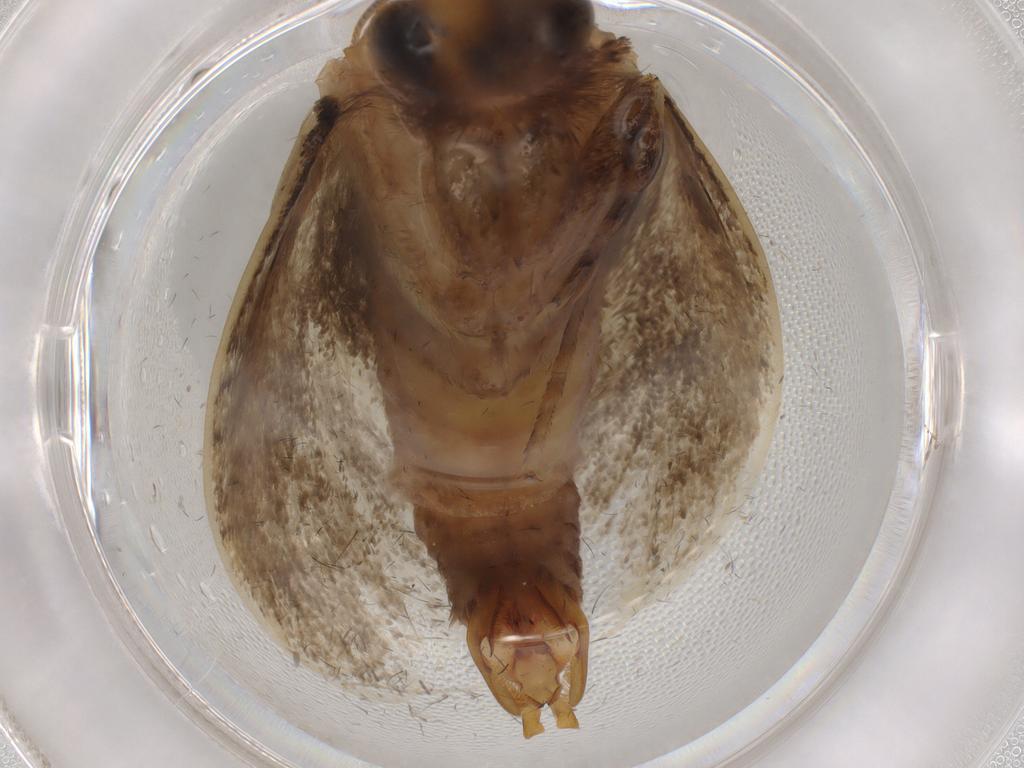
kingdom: Animalia
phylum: Arthropoda
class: Insecta
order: Lepidoptera
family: Tineidae
